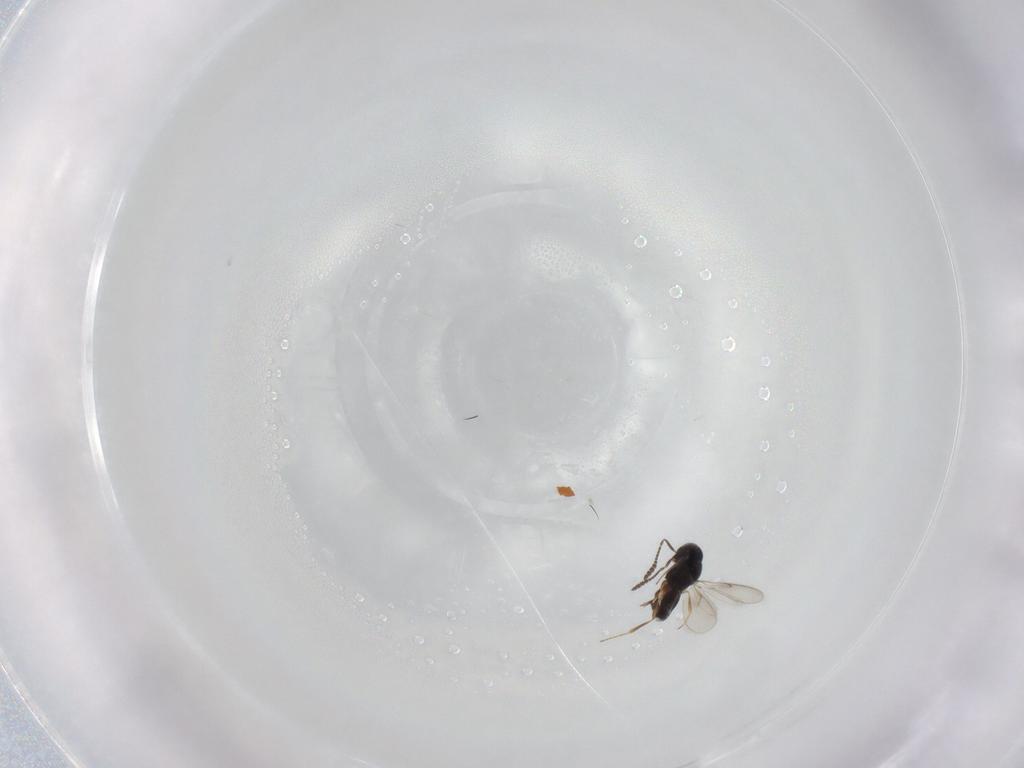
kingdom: Animalia
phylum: Arthropoda
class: Insecta
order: Hymenoptera
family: Scelionidae
